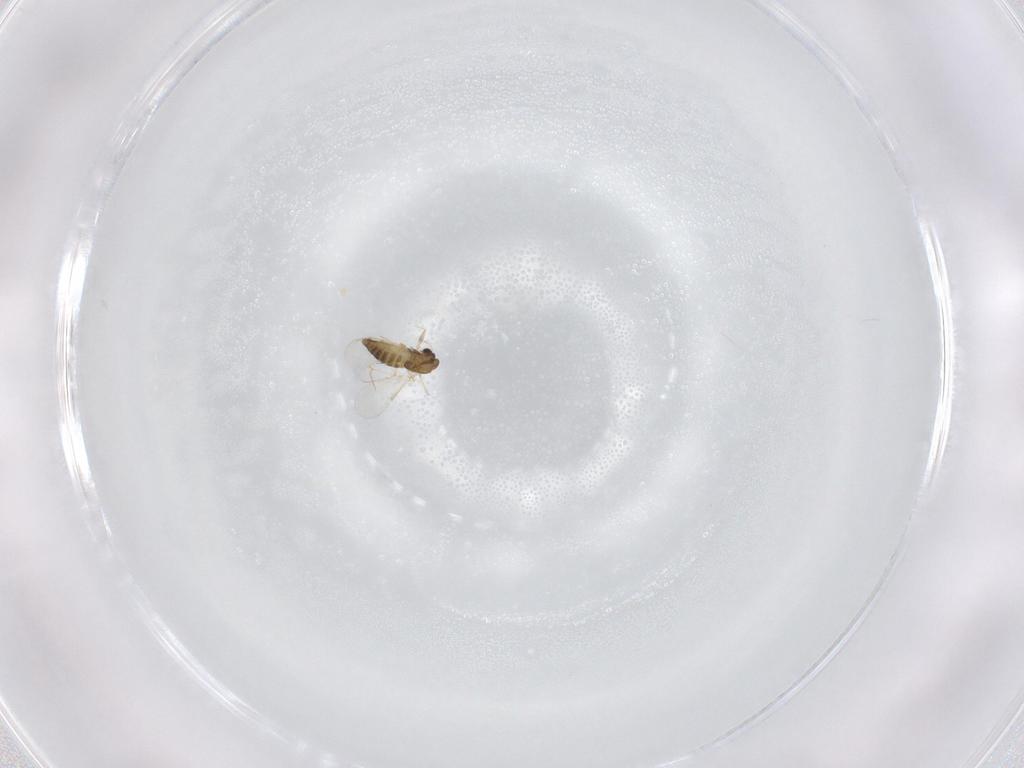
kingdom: Animalia
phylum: Arthropoda
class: Insecta
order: Diptera
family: Chironomidae
